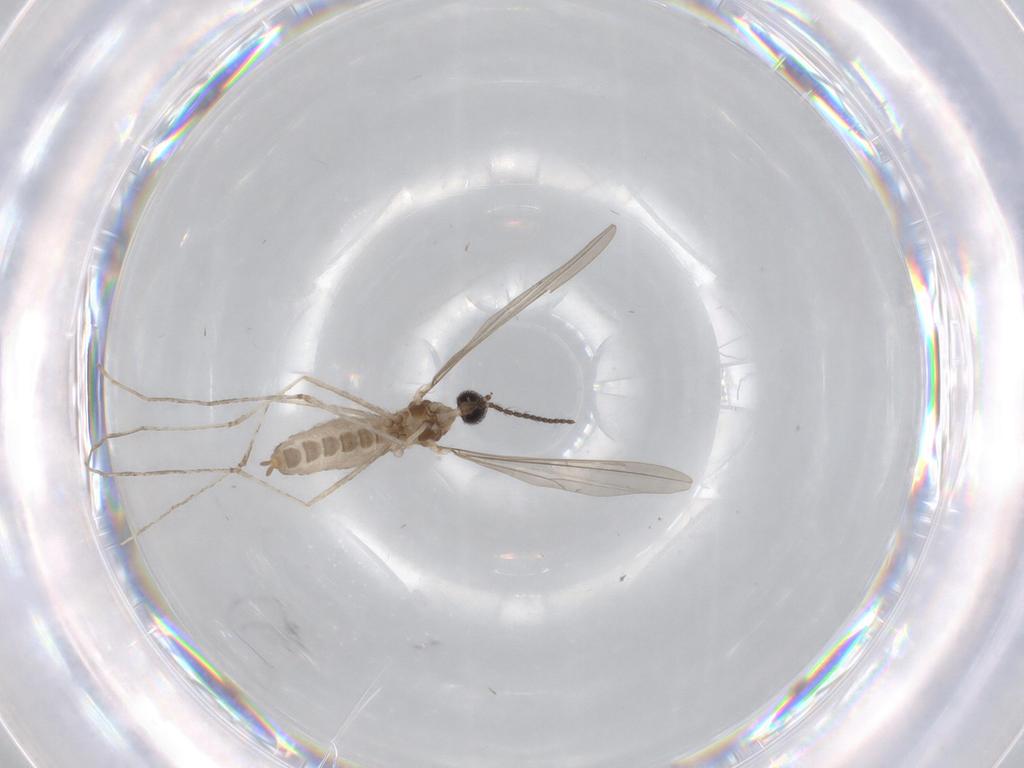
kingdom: Animalia
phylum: Arthropoda
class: Insecta
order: Diptera
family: Cecidomyiidae
